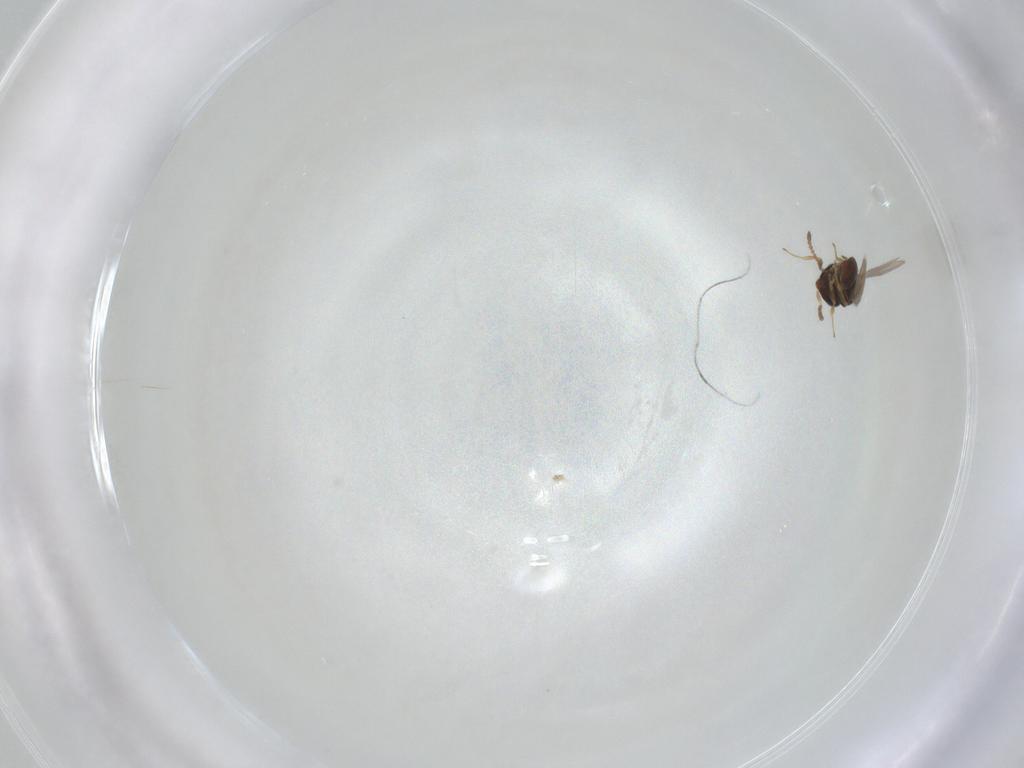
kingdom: Animalia
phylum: Arthropoda
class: Insecta
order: Hymenoptera
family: Scelionidae
